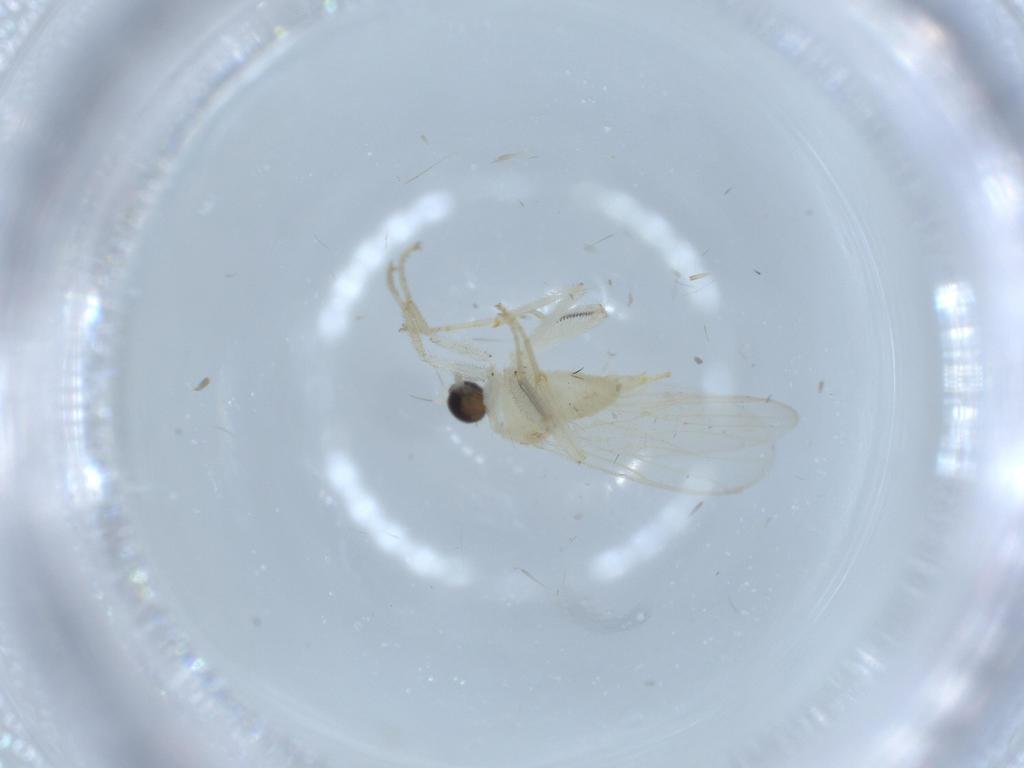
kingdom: Animalia
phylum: Arthropoda
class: Insecta
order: Diptera
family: Hybotidae
